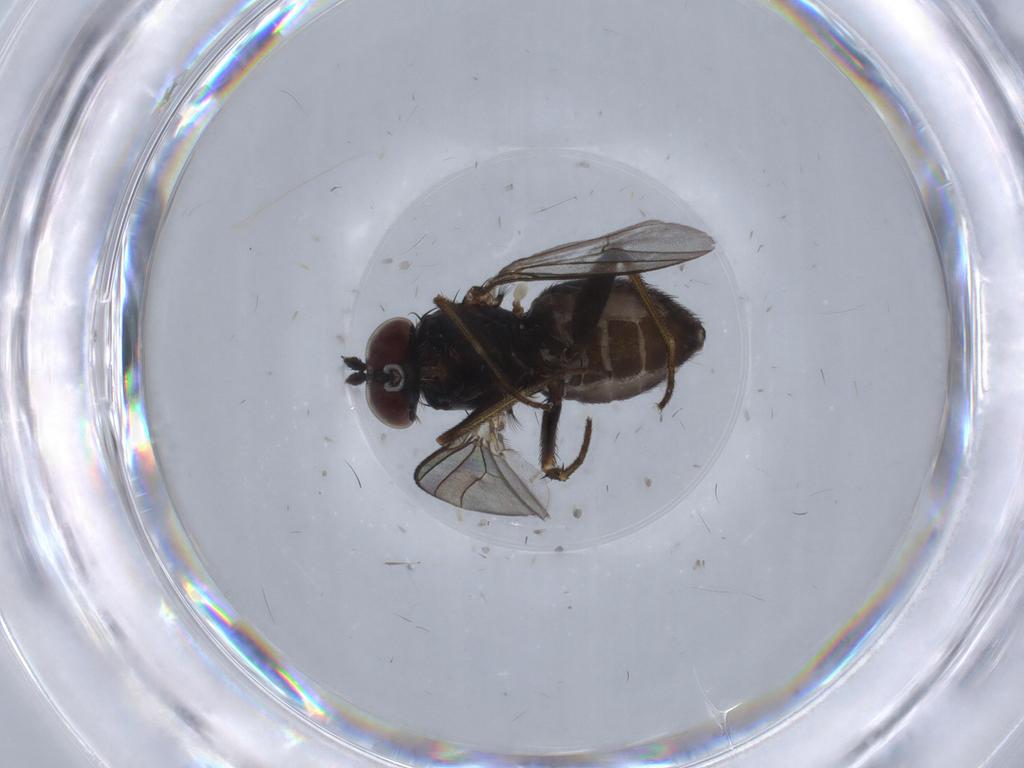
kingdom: Animalia
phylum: Arthropoda
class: Insecta
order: Diptera
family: Dolichopodidae
